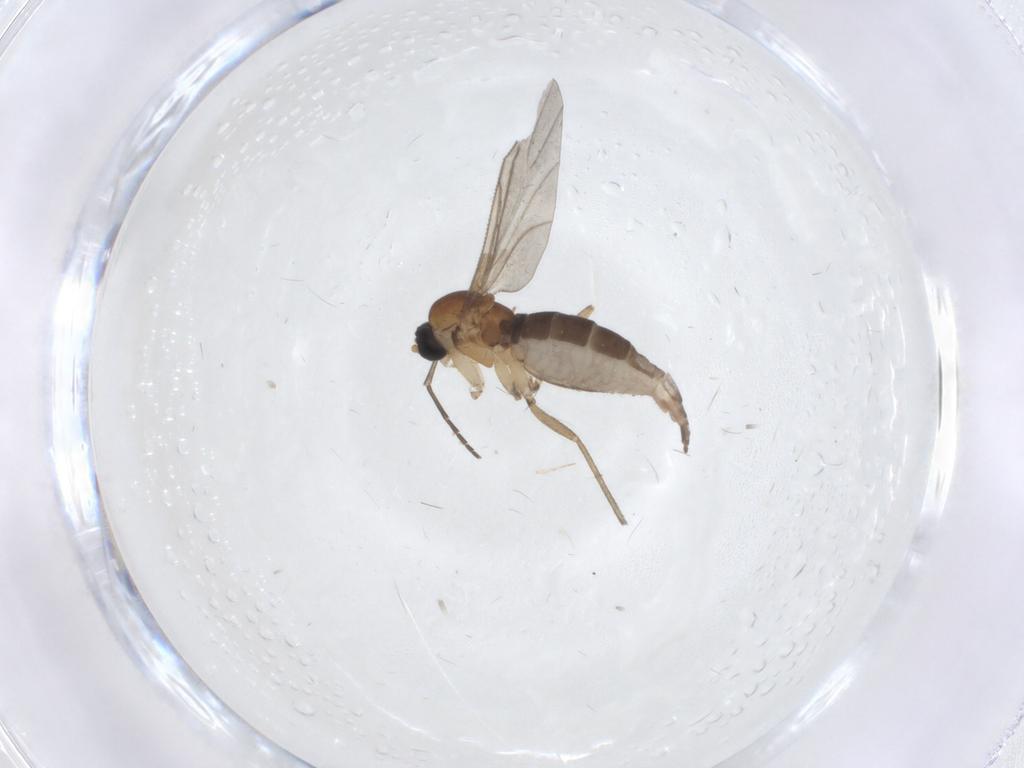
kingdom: Animalia
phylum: Arthropoda
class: Insecta
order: Diptera
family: Sciaridae
